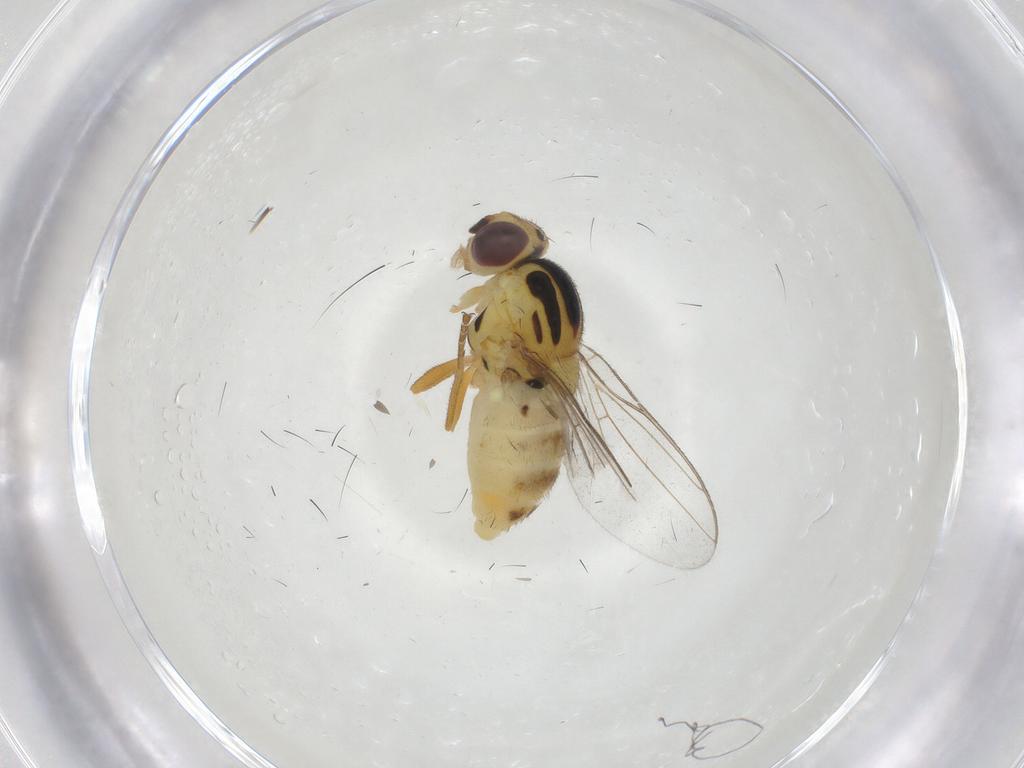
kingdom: Animalia
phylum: Arthropoda
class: Insecta
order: Diptera
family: Chloropidae
